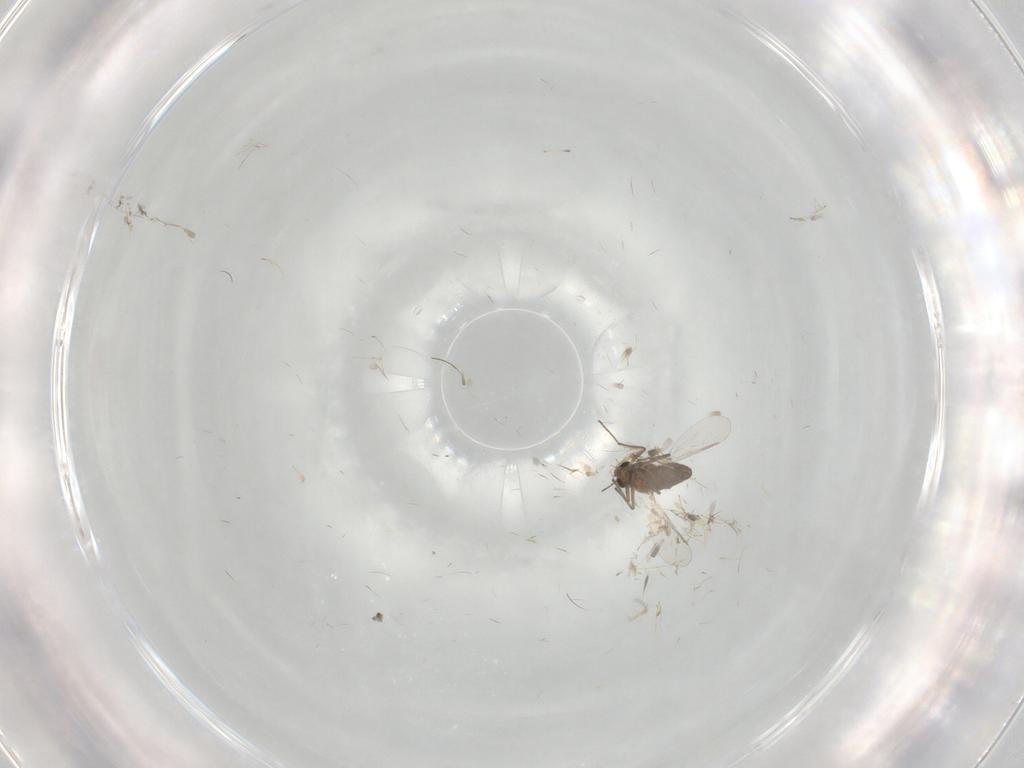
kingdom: Animalia
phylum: Arthropoda
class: Insecta
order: Diptera
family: Chironomidae
